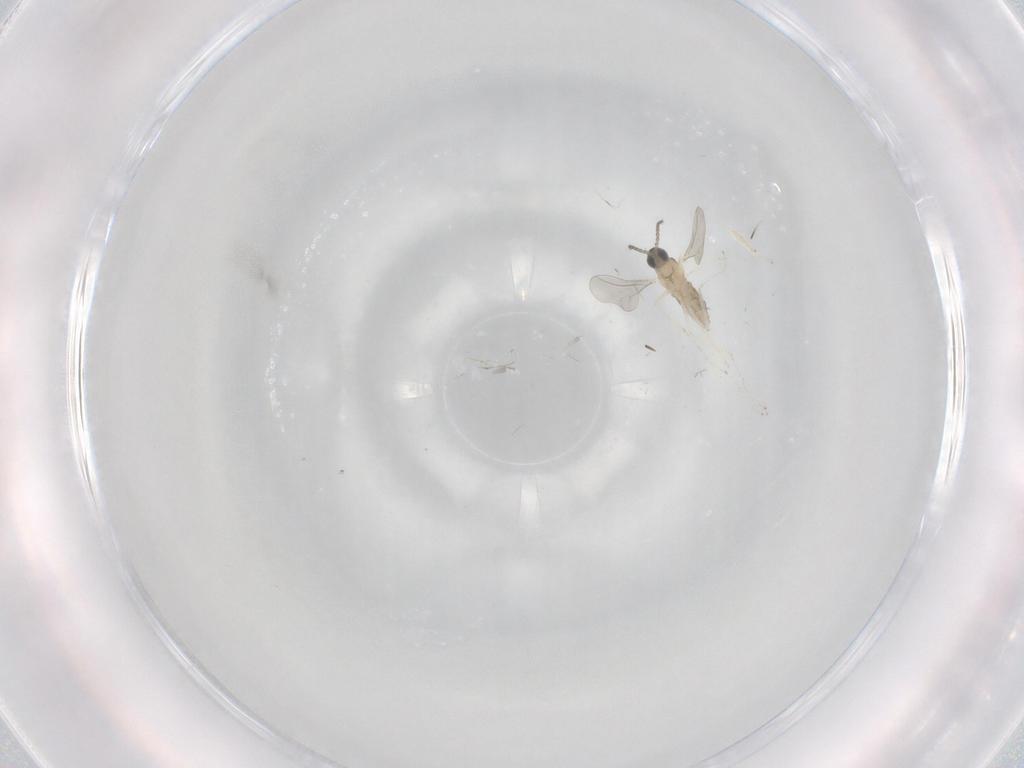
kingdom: Animalia
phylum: Arthropoda
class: Insecta
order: Diptera
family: Cecidomyiidae
